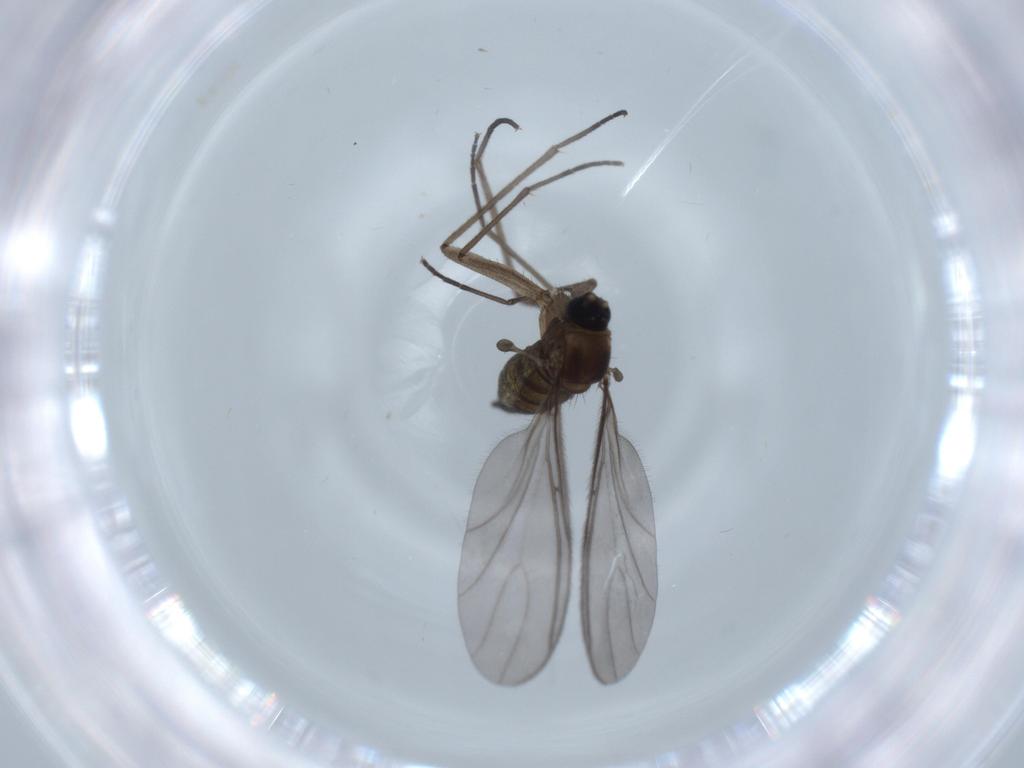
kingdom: Animalia
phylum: Arthropoda
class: Insecta
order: Diptera
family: Sciaridae
